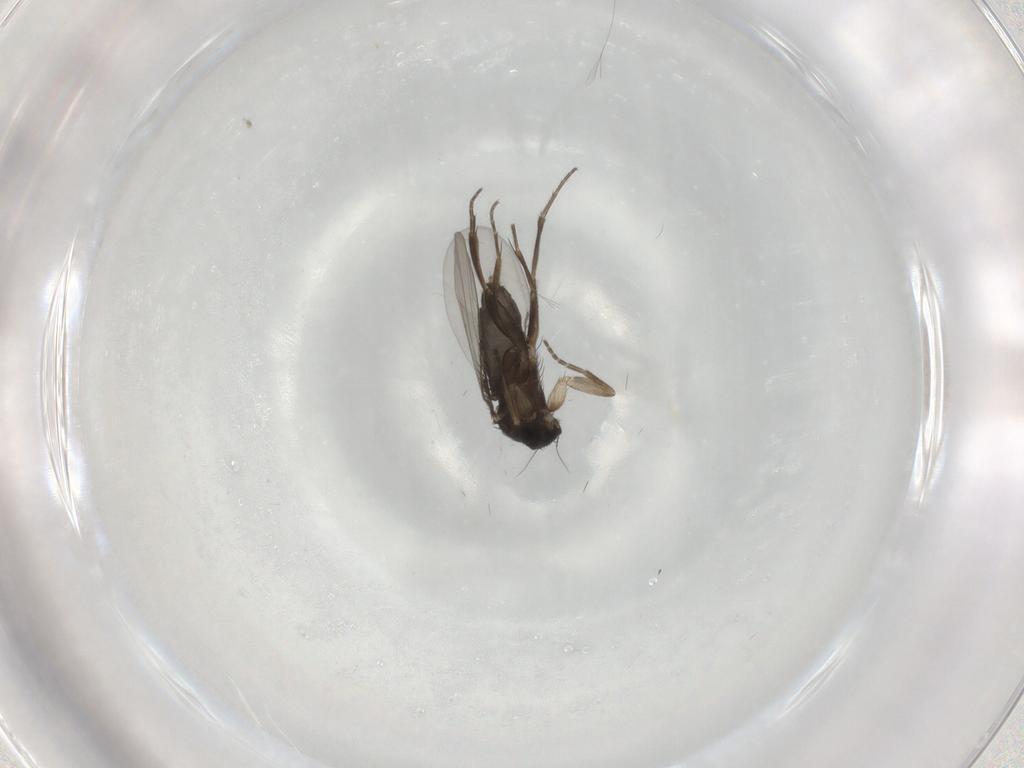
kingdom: Animalia
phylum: Arthropoda
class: Insecta
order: Diptera
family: Phoridae
